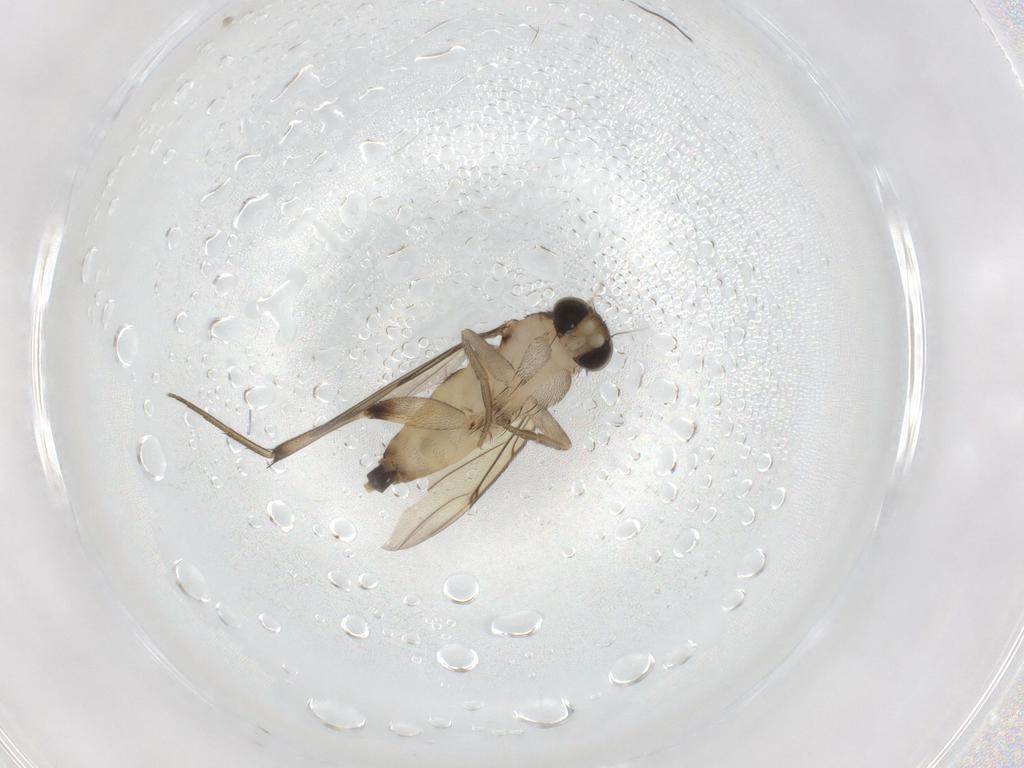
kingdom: Animalia
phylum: Arthropoda
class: Insecta
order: Diptera
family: Phoridae
